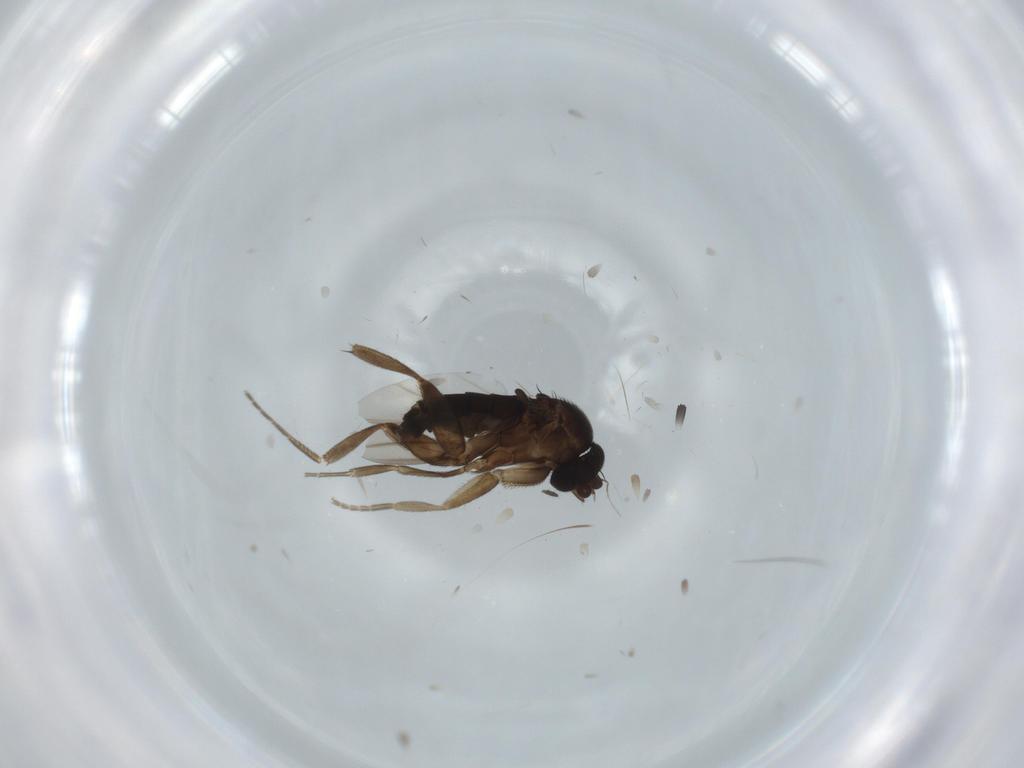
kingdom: Animalia
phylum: Arthropoda
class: Insecta
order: Diptera
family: Phoridae
